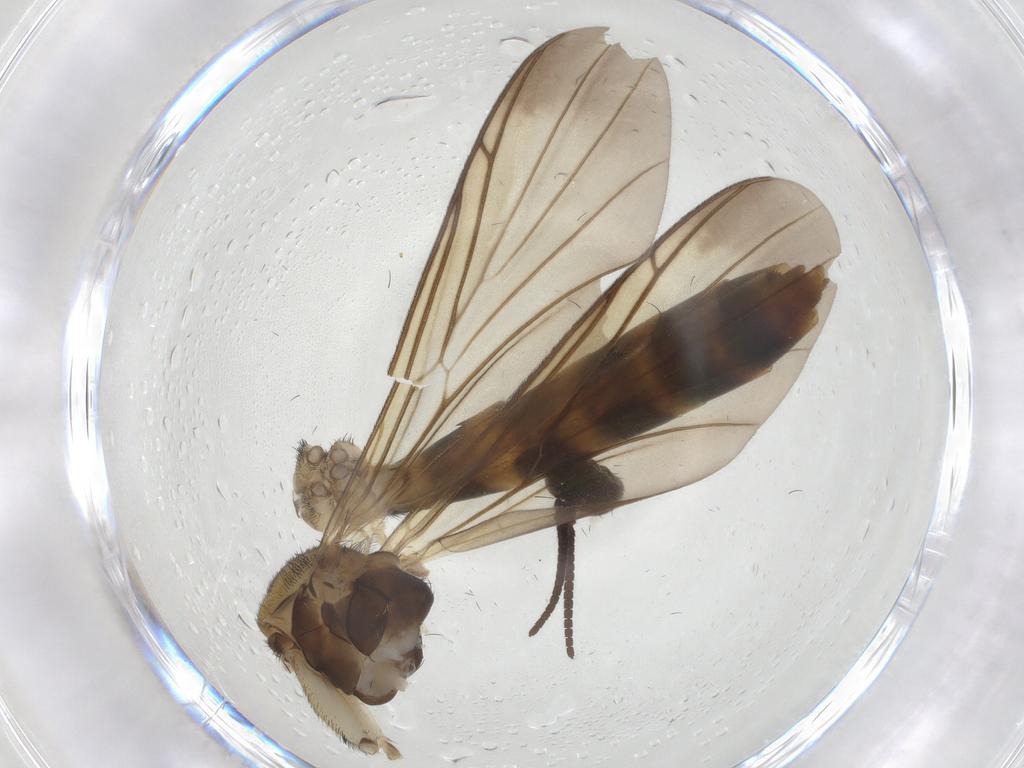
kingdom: Animalia
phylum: Arthropoda
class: Insecta
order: Diptera
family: Keroplatidae
